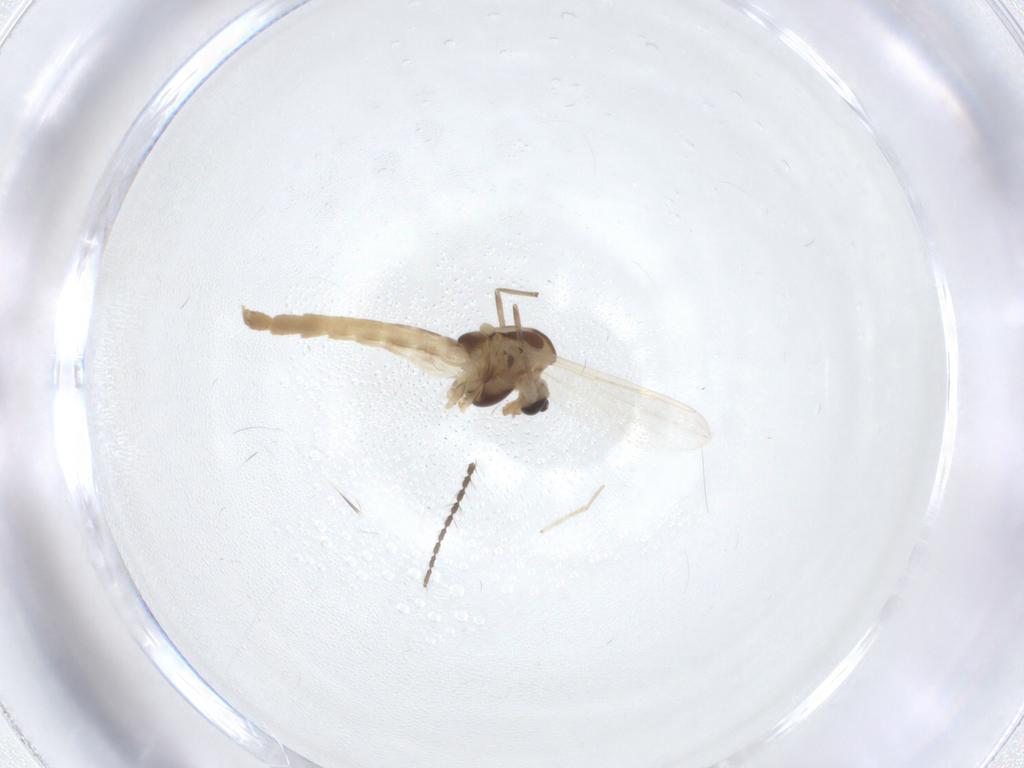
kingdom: Animalia
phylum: Arthropoda
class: Insecta
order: Diptera
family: Chironomidae
